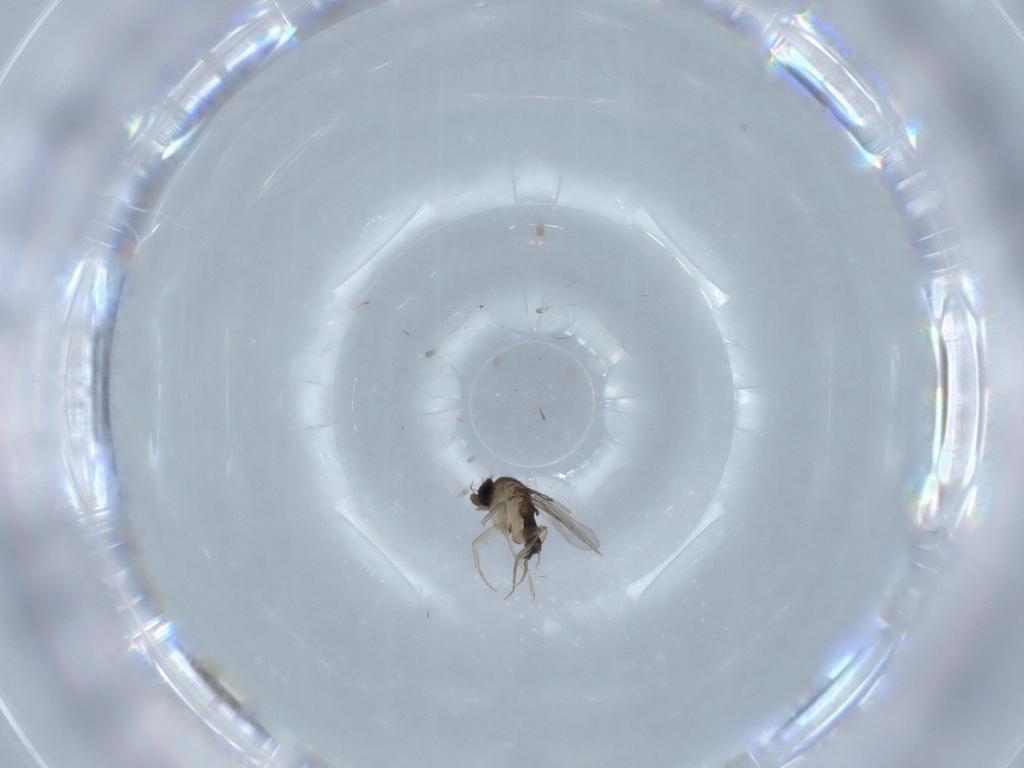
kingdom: Animalia
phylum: Arthropoda
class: Insecta
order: Diptera
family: Phoridae
